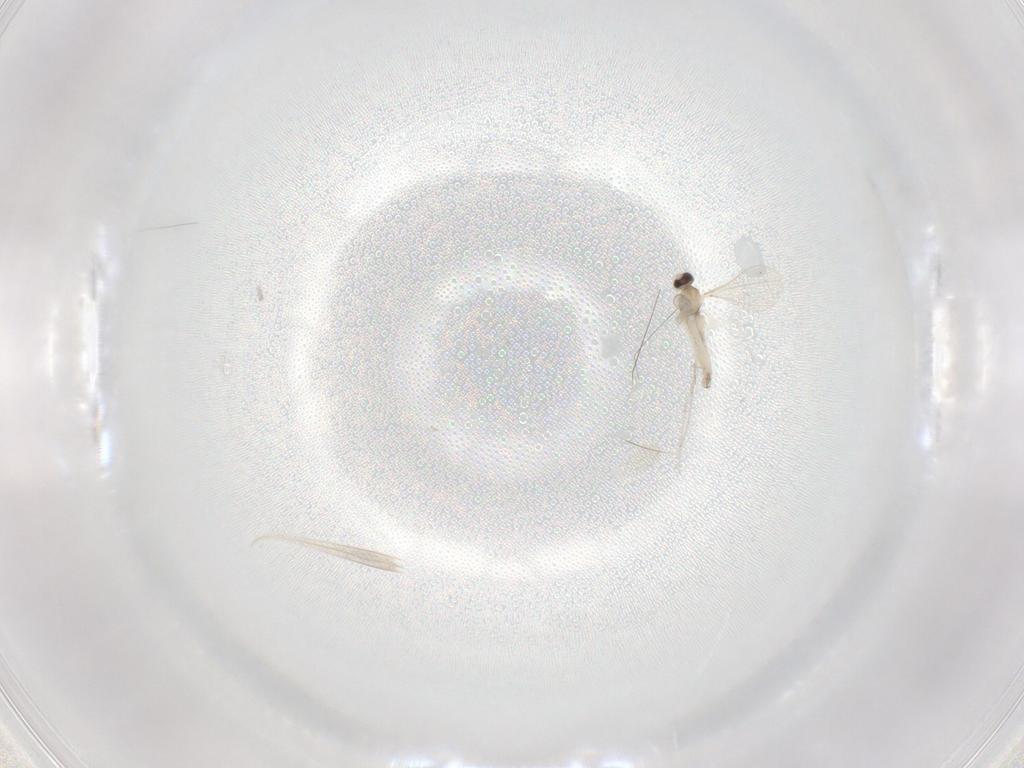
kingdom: Animalia
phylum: Arthropoda
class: Insecta
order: Diptera
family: Cecidomyiidae
